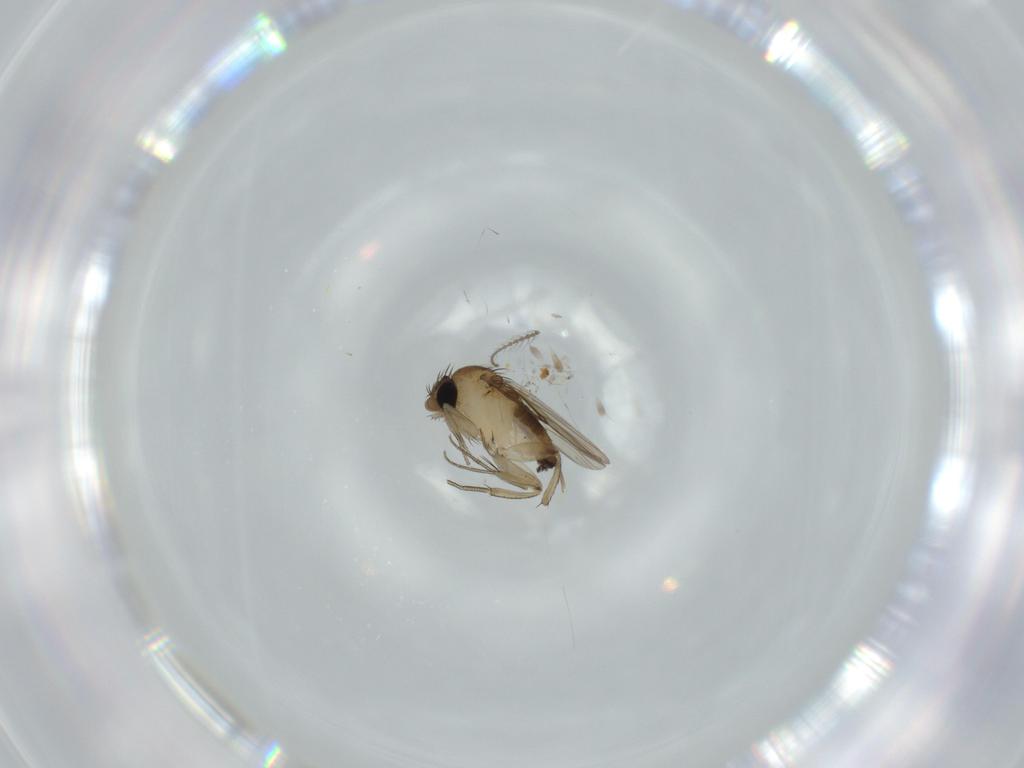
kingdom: Animalia
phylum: Arthropoda
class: Insecta
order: Diptera
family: Phoridae
